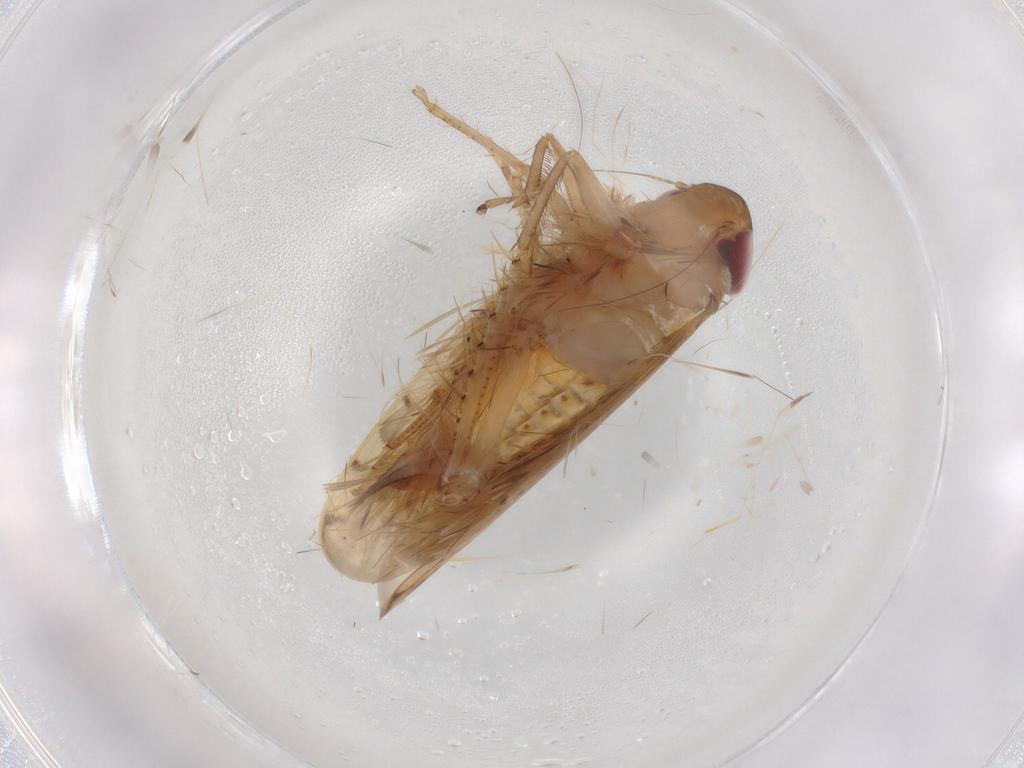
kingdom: Animalia
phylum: Arthropoda
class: Insecta
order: Hemiptera
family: Cicadellidae
